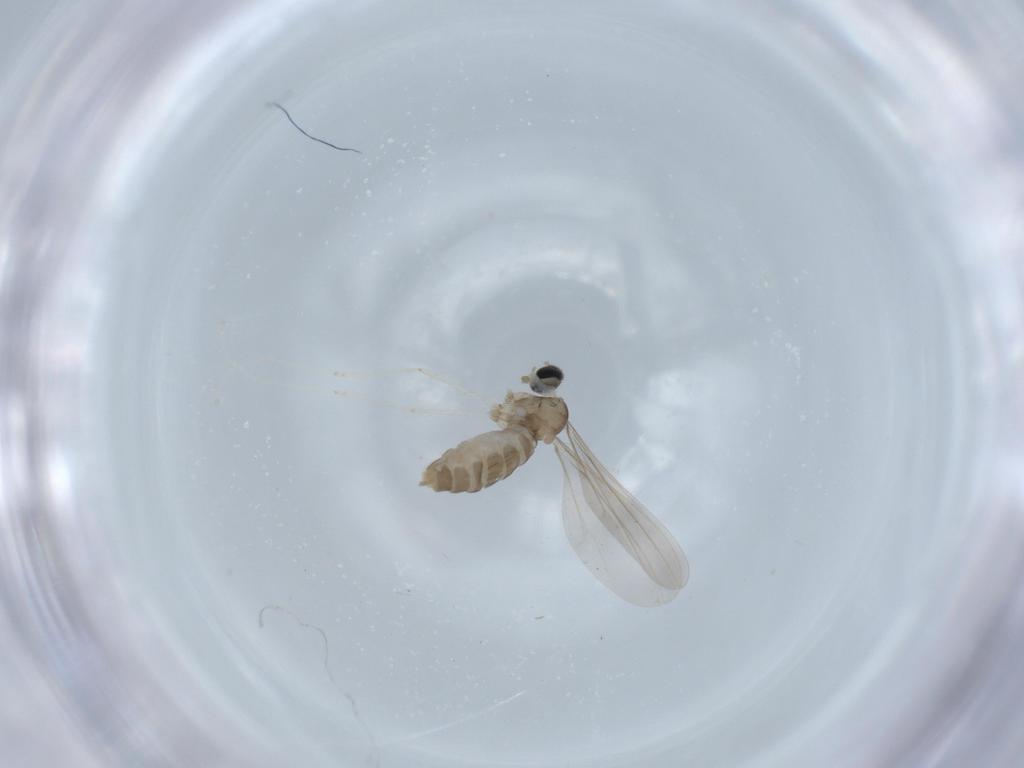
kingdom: Animalia
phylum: Arthropoda
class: Insecta
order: Diptera
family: Cecidomyiidae
